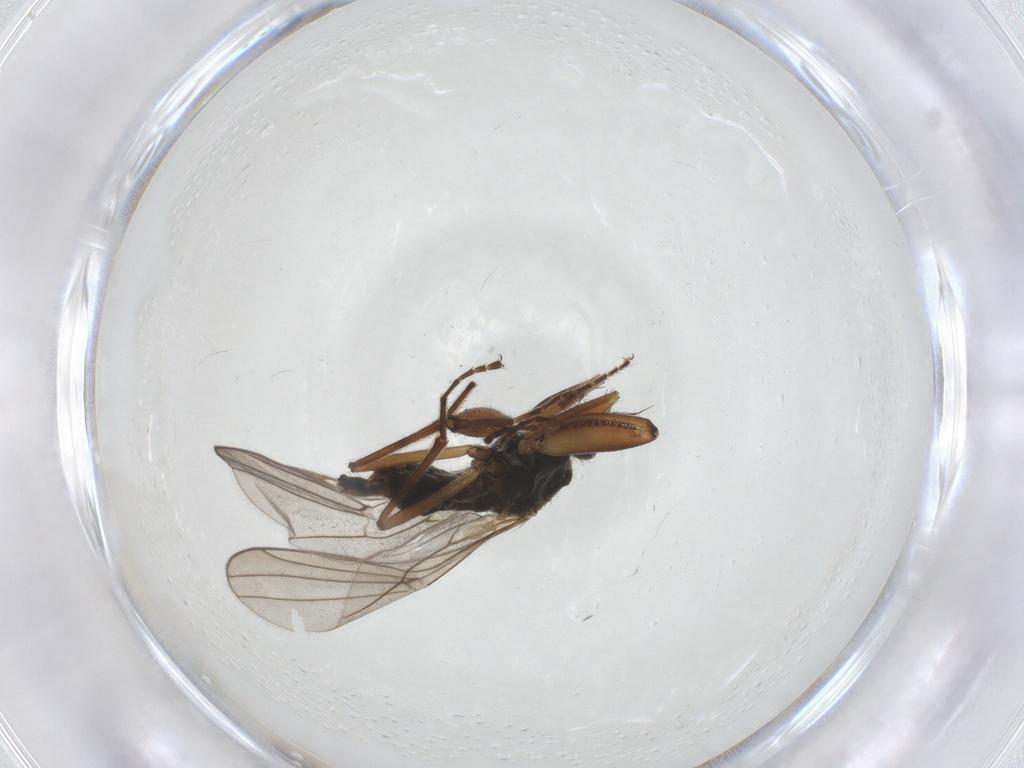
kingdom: Animalia
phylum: Arthropoda
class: Insecta
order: Diptera
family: Hybotidae
